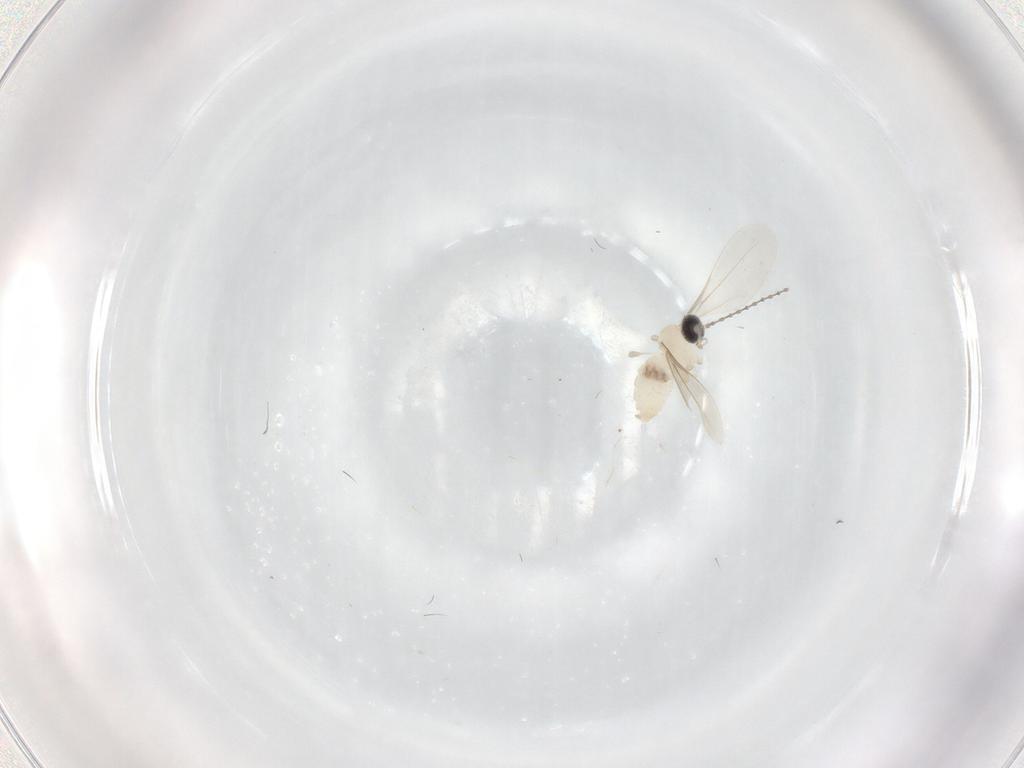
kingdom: Animalia
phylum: Arthropoda
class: Insecta
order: Diptera
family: Cecidomyiidae
